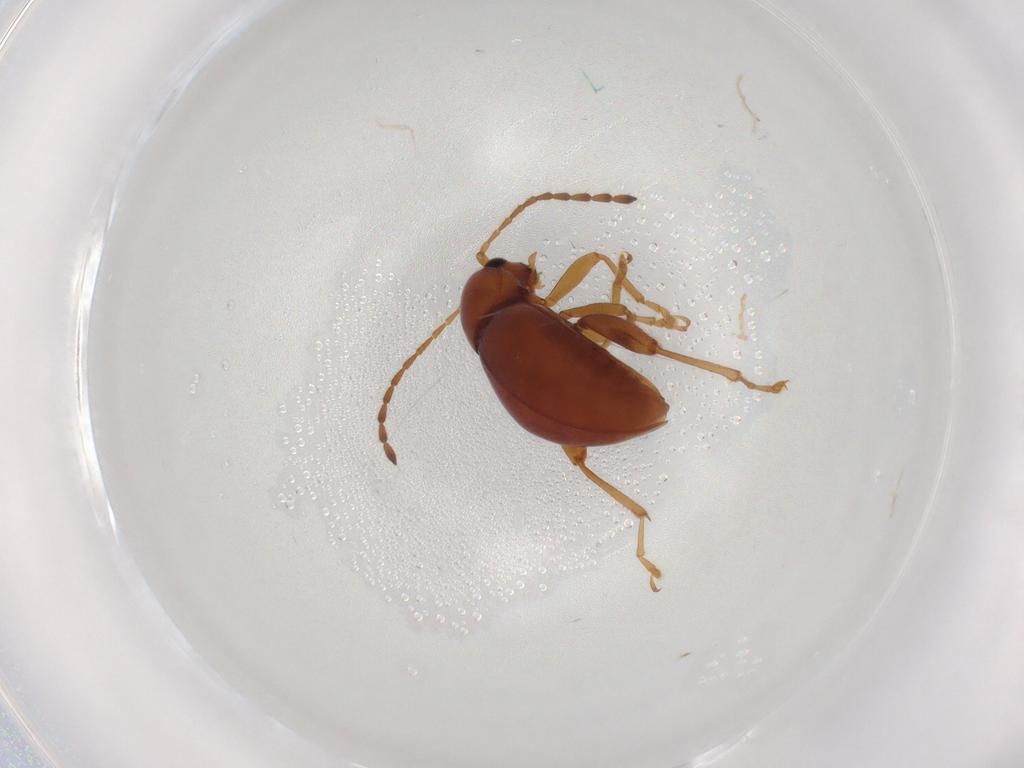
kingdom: Animalia
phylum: Arthropoda
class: Insecta
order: Coleoptera
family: Chrysomelidae
